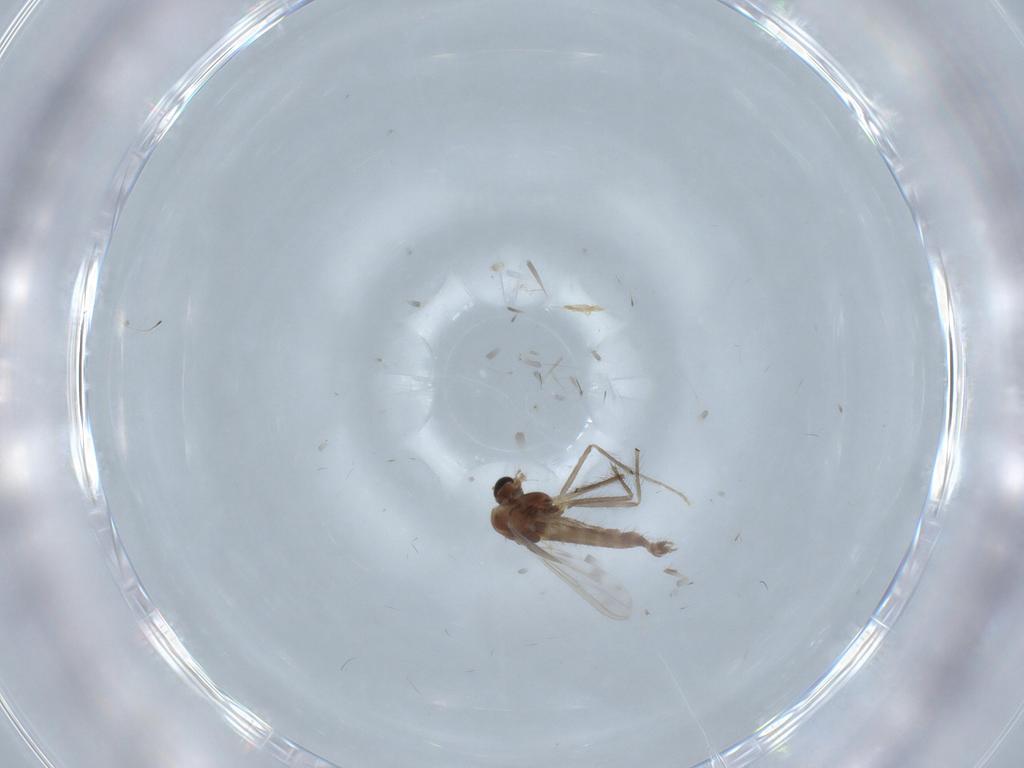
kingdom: Animalia
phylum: Arthropoda
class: Insecta
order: Diptera
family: Chironomidae
